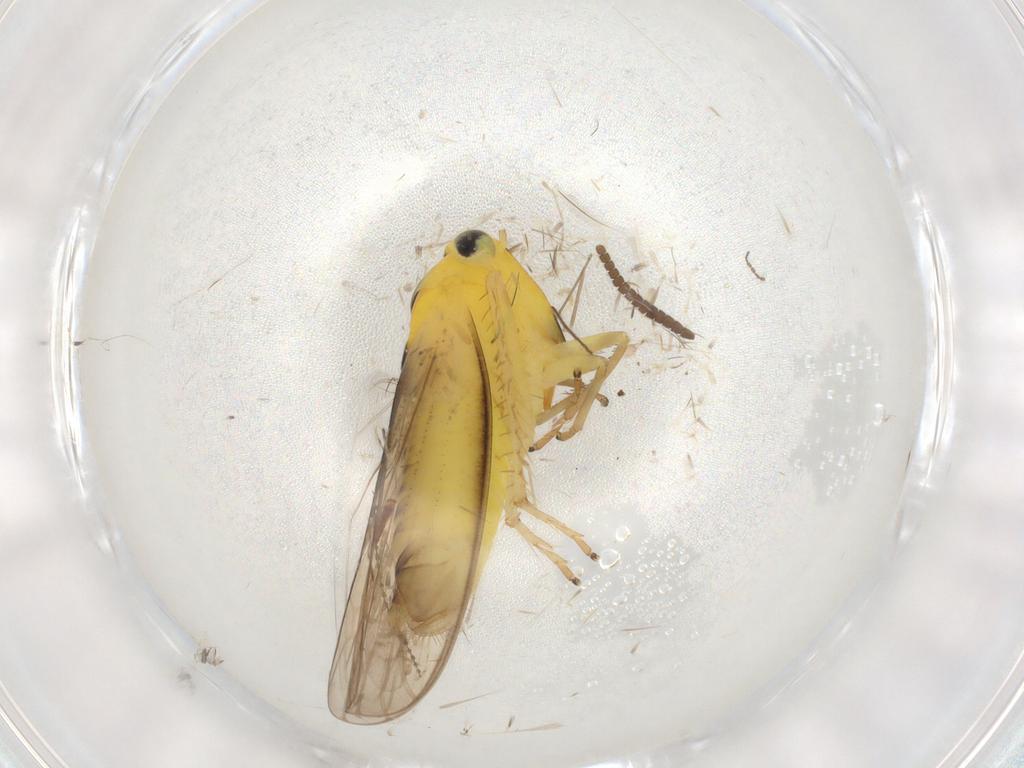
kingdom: Animalia
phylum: Arthropoda
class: Insecta
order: Hemiptera
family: Cicadellidae
